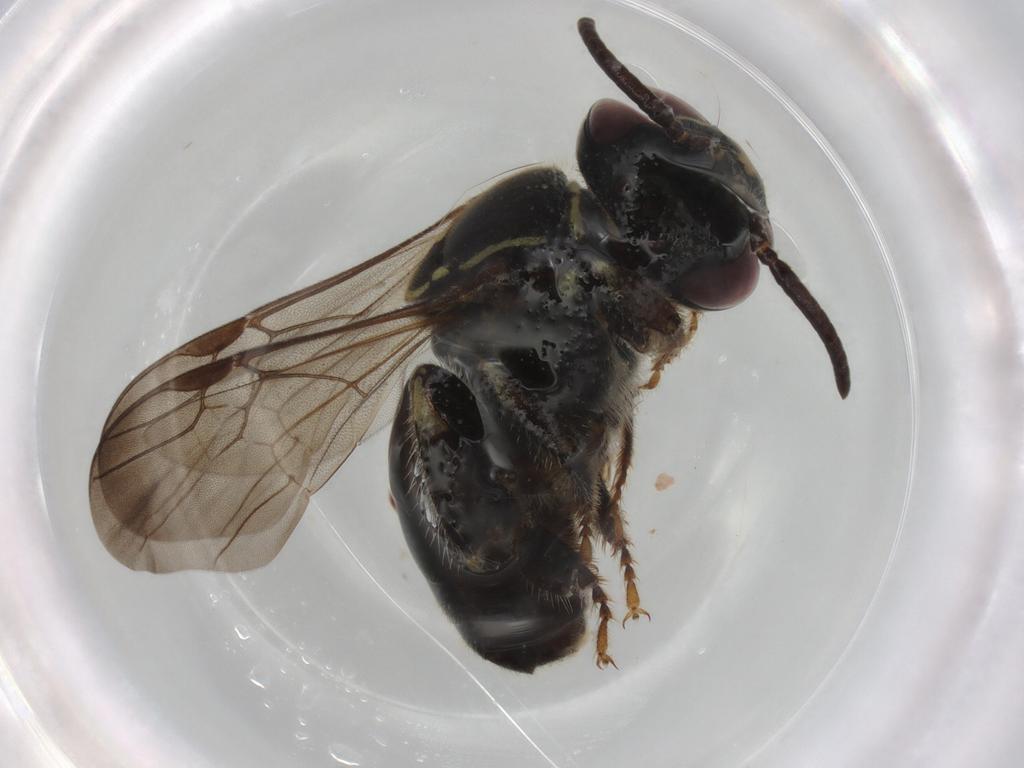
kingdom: Animalia
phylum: Arthropoda
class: Insecta
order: Hymenoptera
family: Apidae
